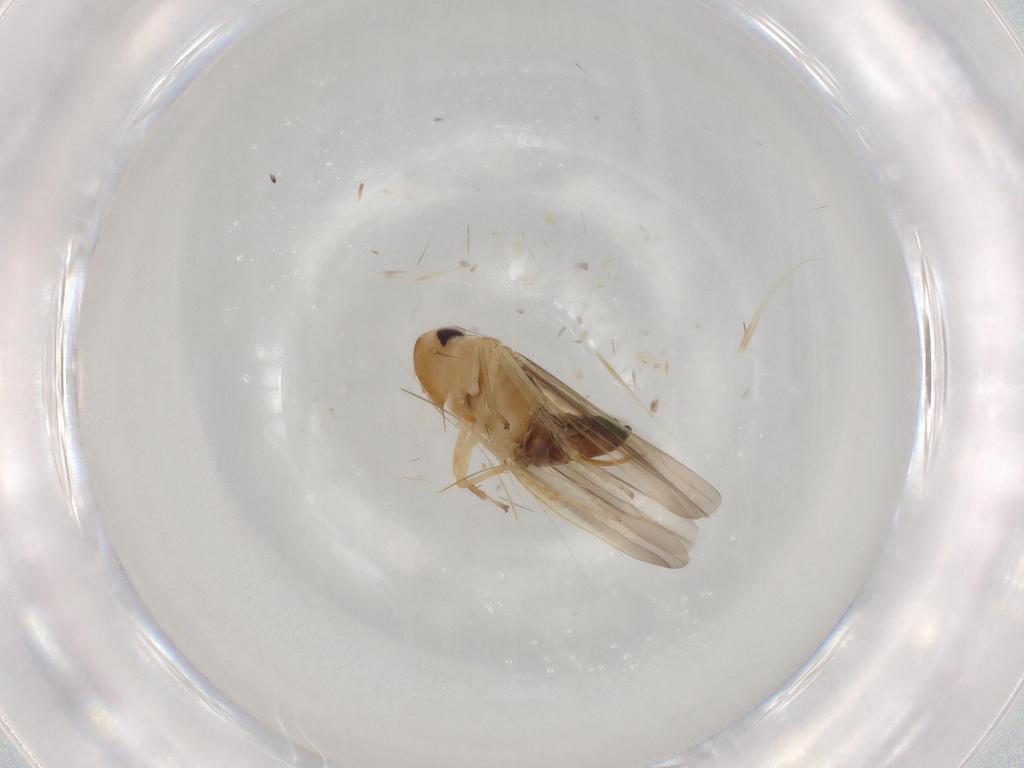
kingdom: Animalia
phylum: Arthropoda
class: Insecta
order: Hemiptera
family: Cicadellidae
